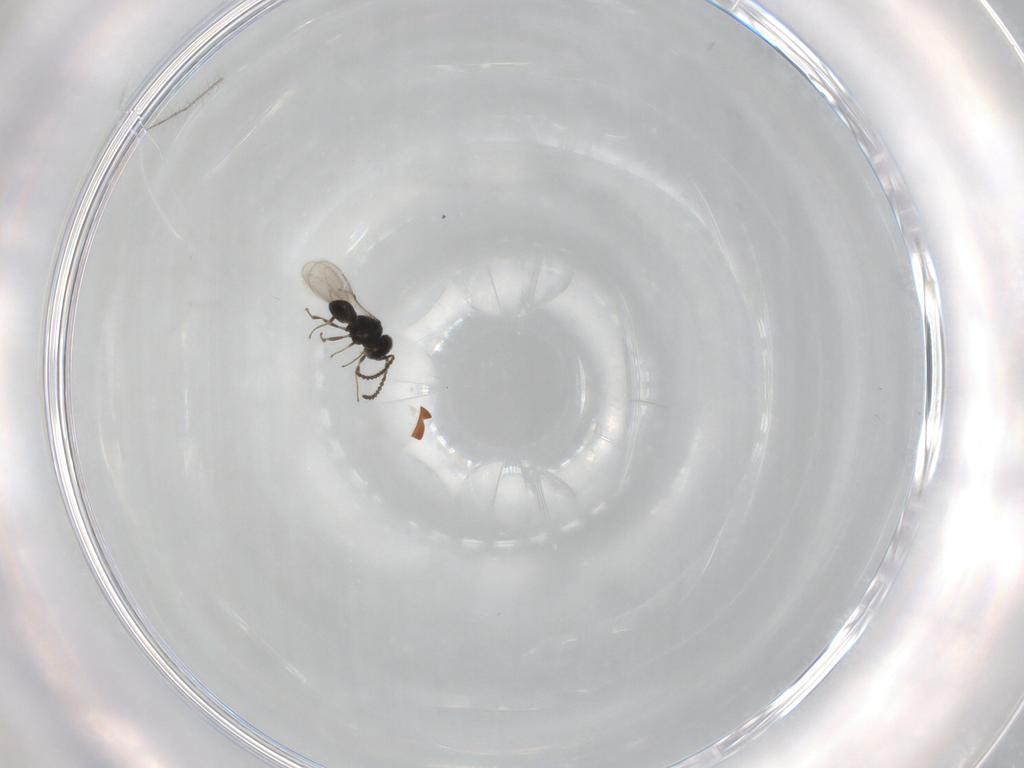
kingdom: Animalia
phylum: Arthropoda
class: Insecta
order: Hymenoptera
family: Scelionidae
